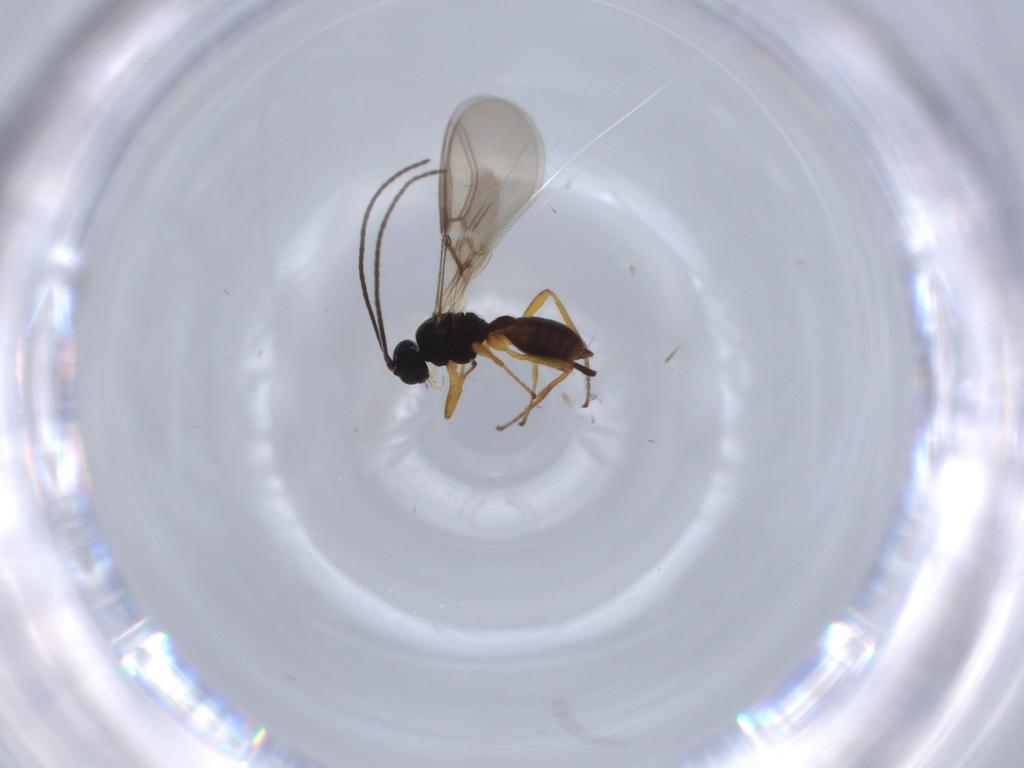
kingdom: Animalia
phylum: Arthropoda
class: Insecta
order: Hymenoptera
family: Braconidae
